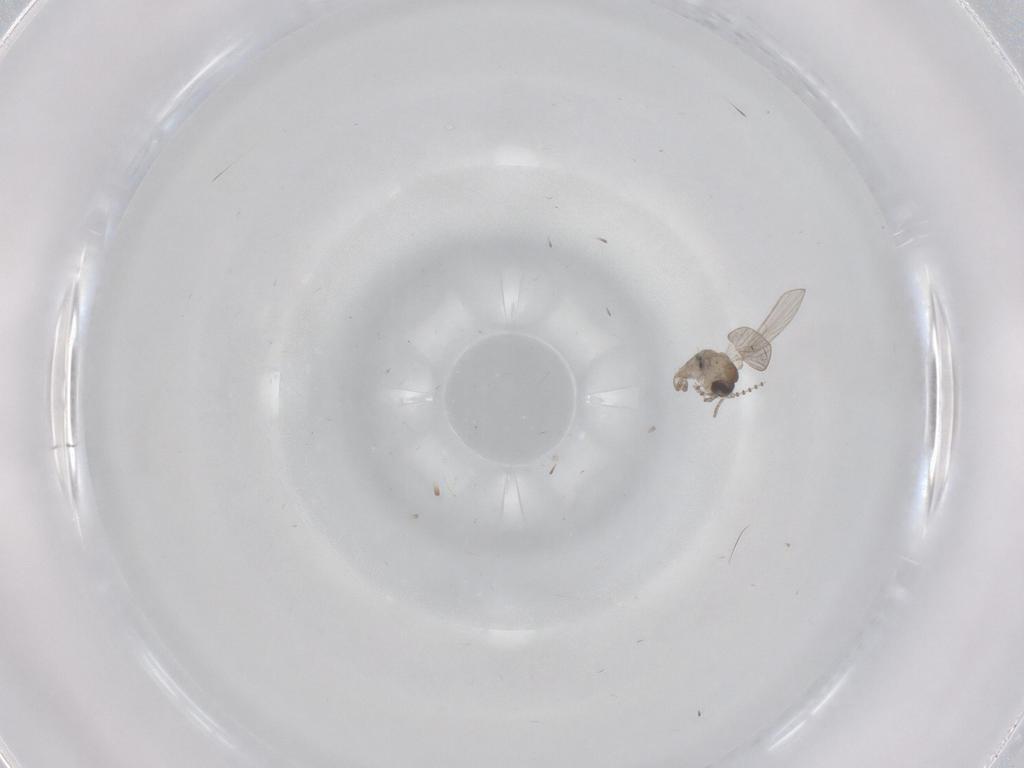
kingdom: Animalia
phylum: Arthropoda
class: Insecta
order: Diptera
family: Psychodidae
